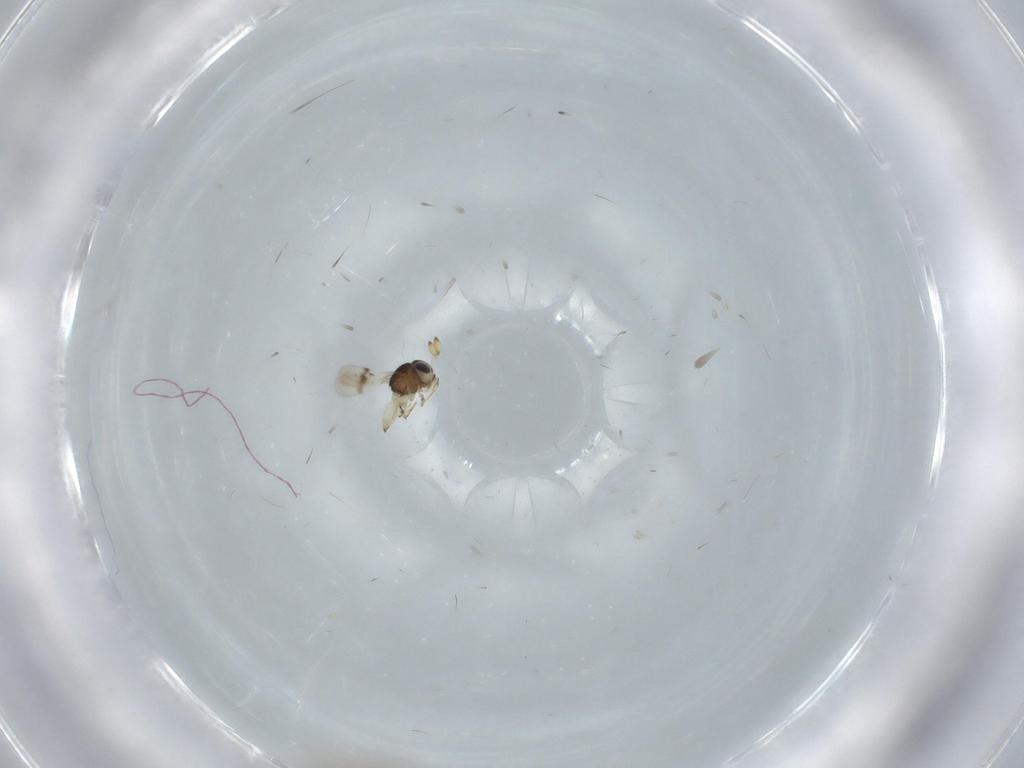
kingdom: Animalia
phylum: Arthropoda
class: Insecta
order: Hymenoptera
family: Scelionidae
